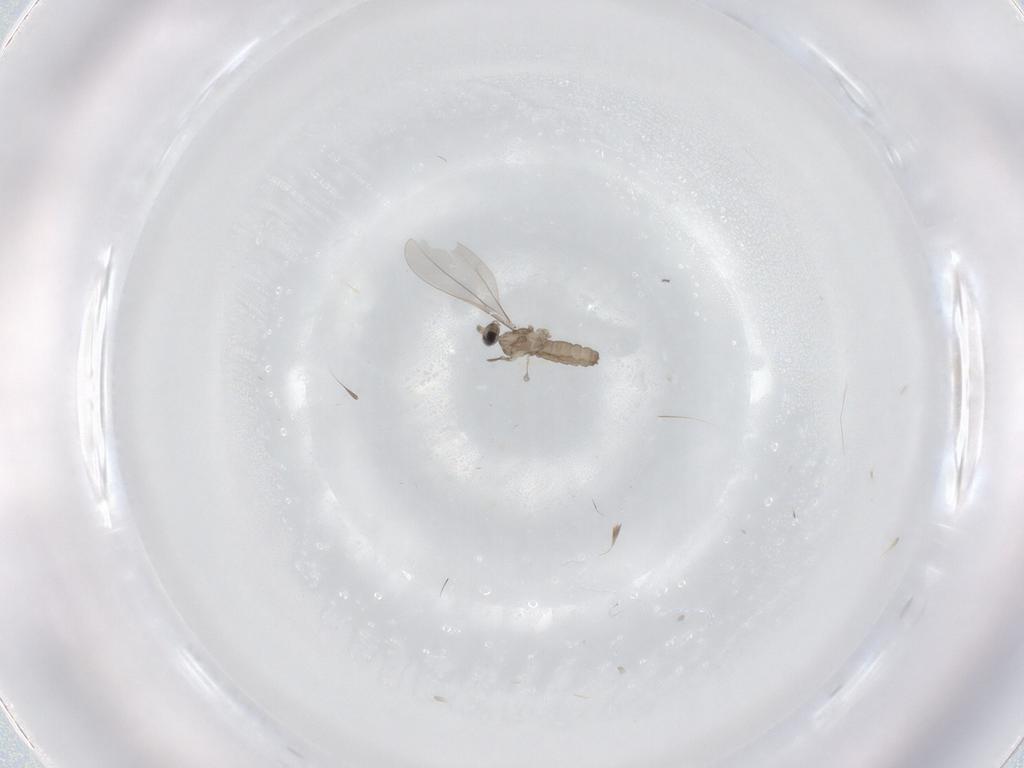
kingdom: Animalia
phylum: Arthropoda
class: Insecta
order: Diptera
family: Cecidomyiidae
